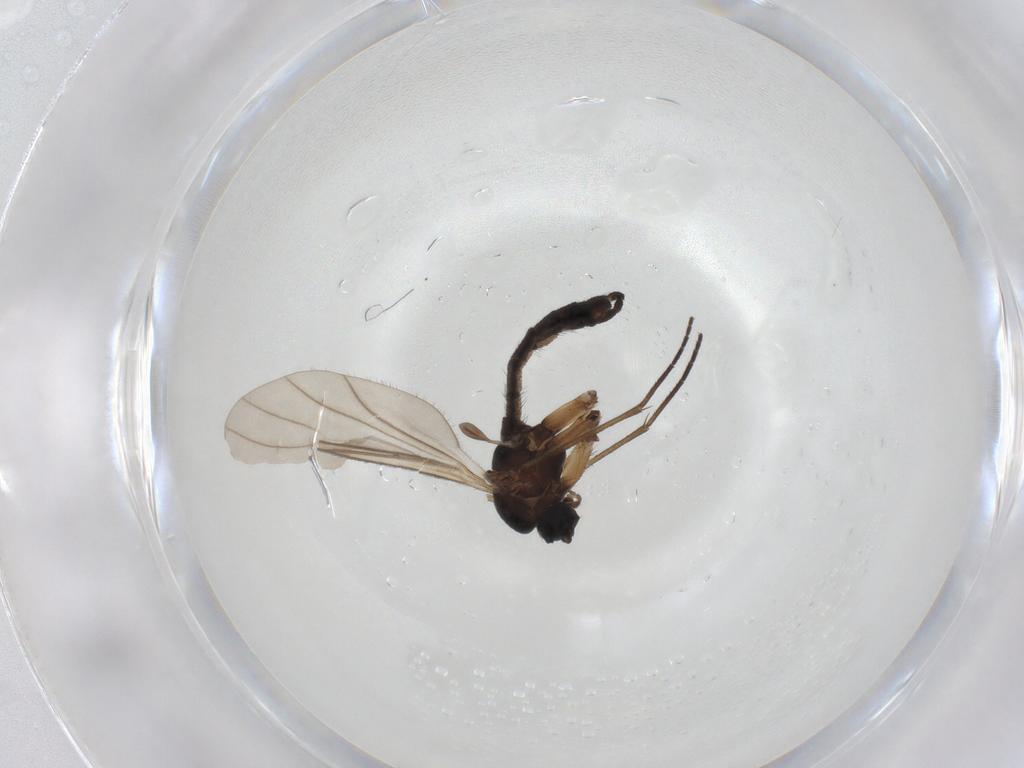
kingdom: Animalia
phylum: Arthropoda
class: Insecta
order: Diptera
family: Sciaridae
